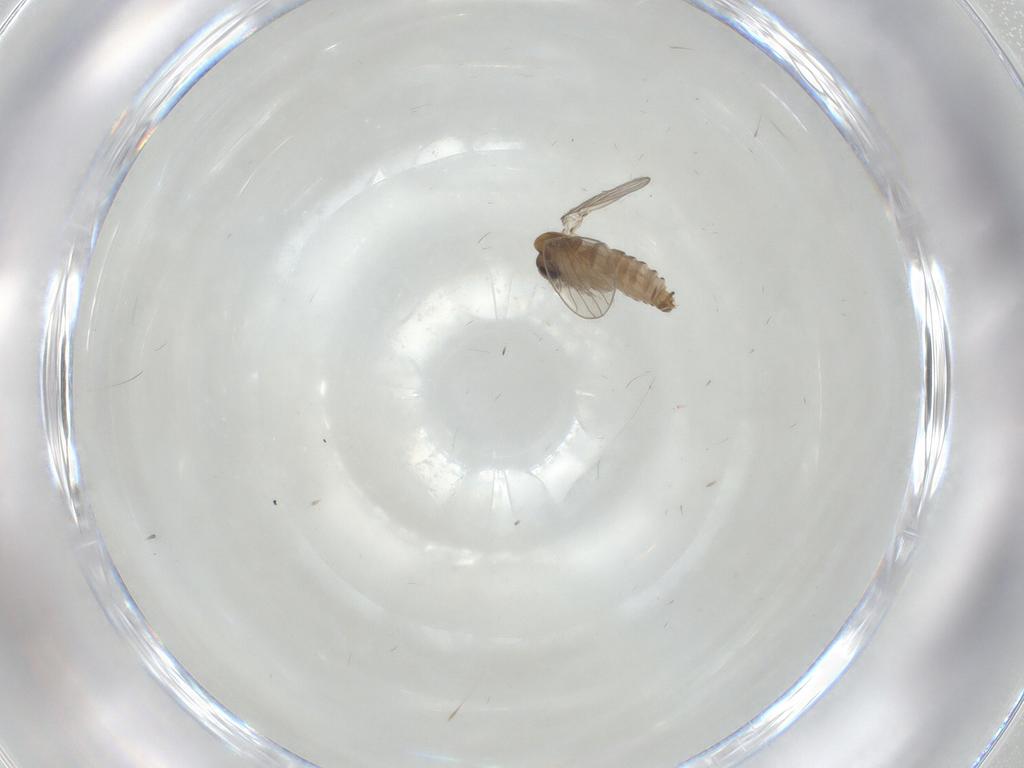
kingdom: Animalia
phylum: Arthropoda
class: Insecta
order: Diptera
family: Psychodidae
